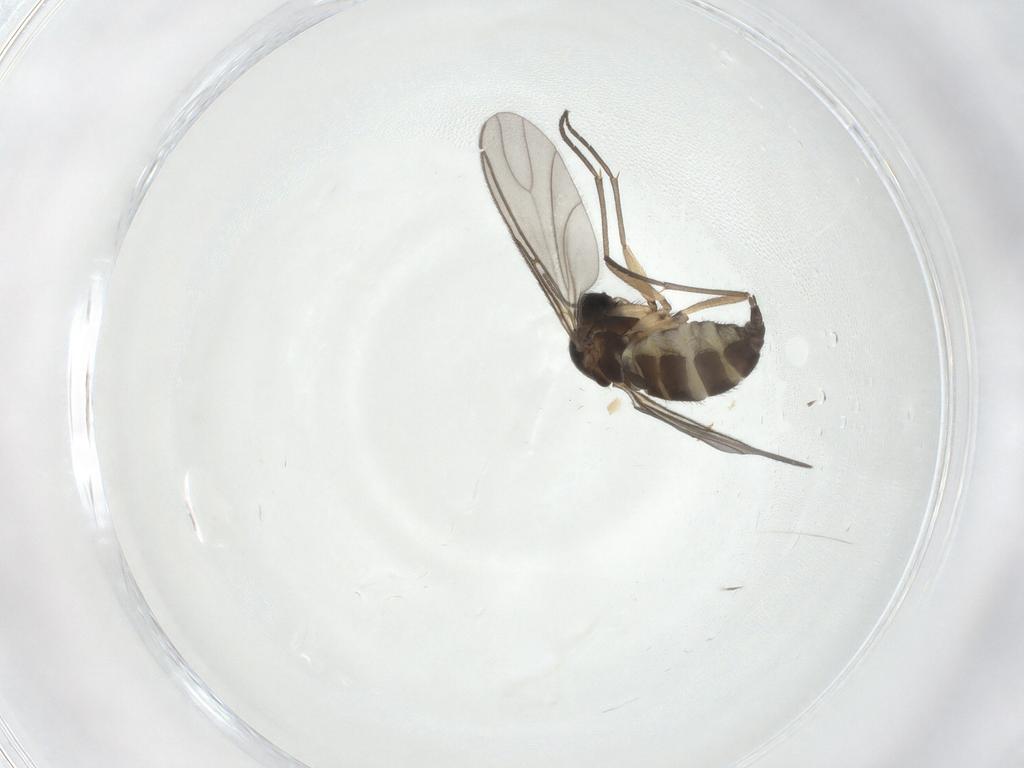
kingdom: Animalia
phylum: Arthropoda
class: Insecta
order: Diptera
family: Sciaridae
